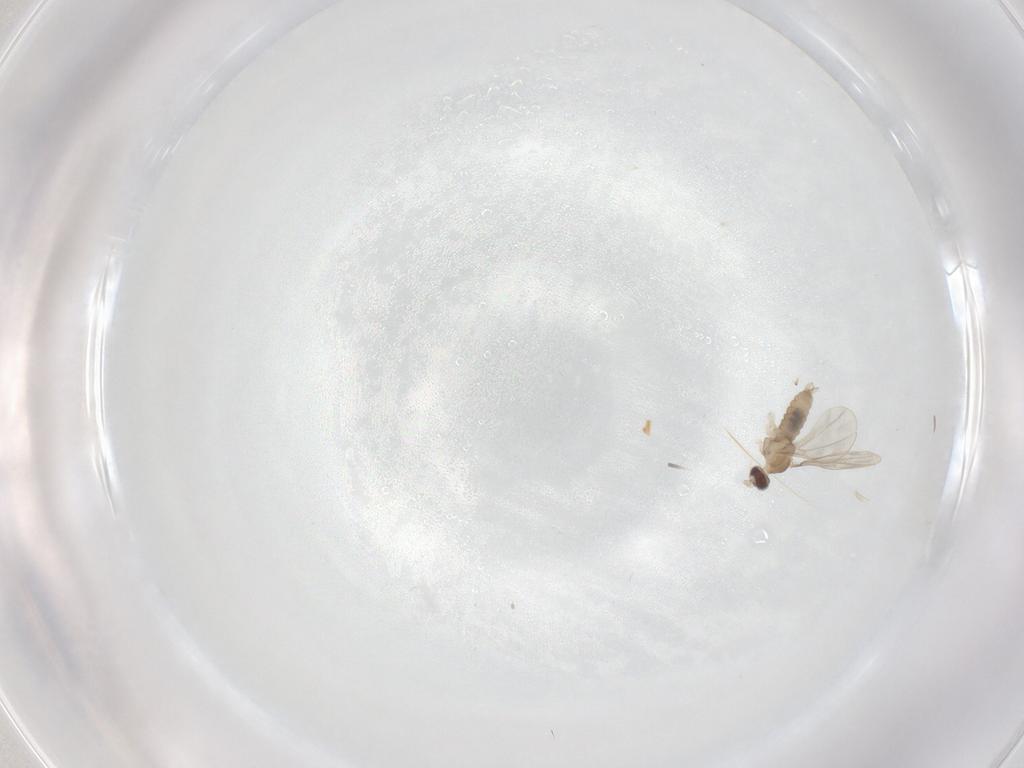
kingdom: Animalia
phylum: Arthropoda
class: Insecta
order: Diptera
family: Cecidomyiidae
